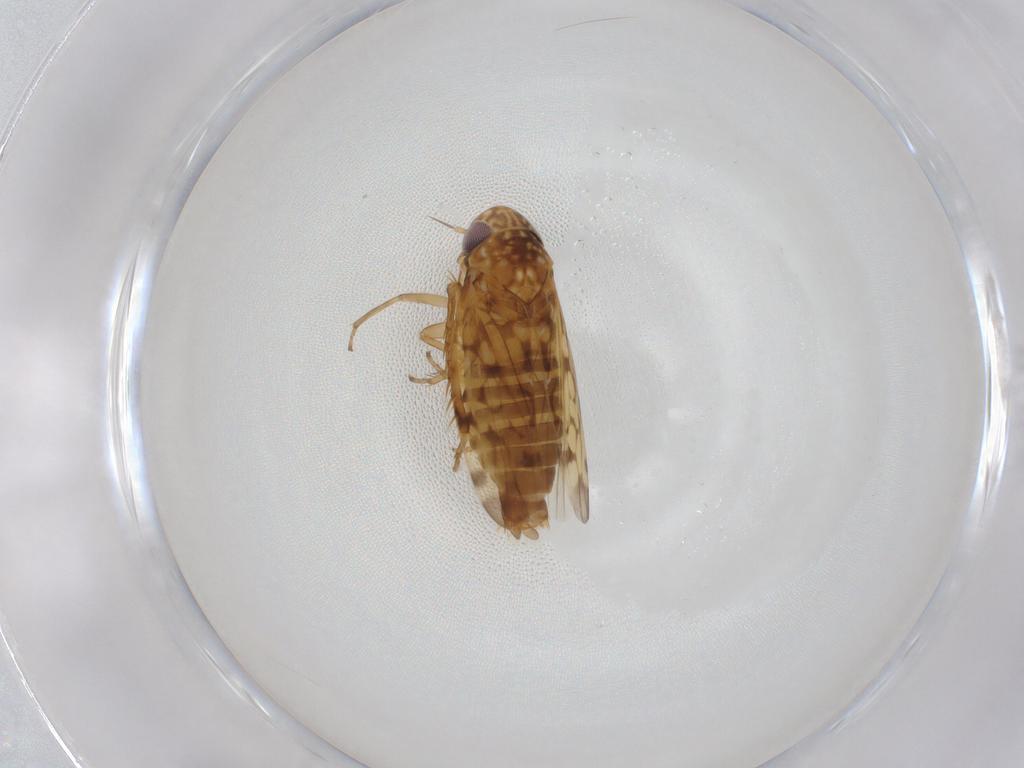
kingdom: Animalia
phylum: Arthropoda
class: Insecta
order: Hemiptera
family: Cicadellidae
